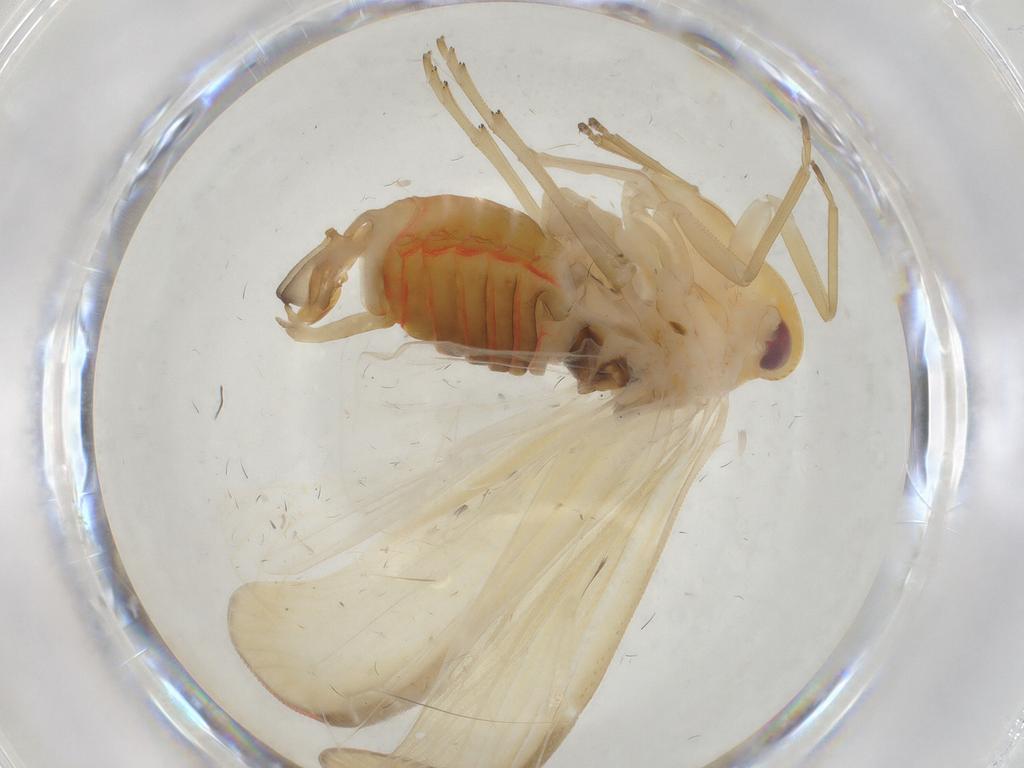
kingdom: Animalia
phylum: Arthropoda
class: Insecta
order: Hemiptera
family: Derbidae
